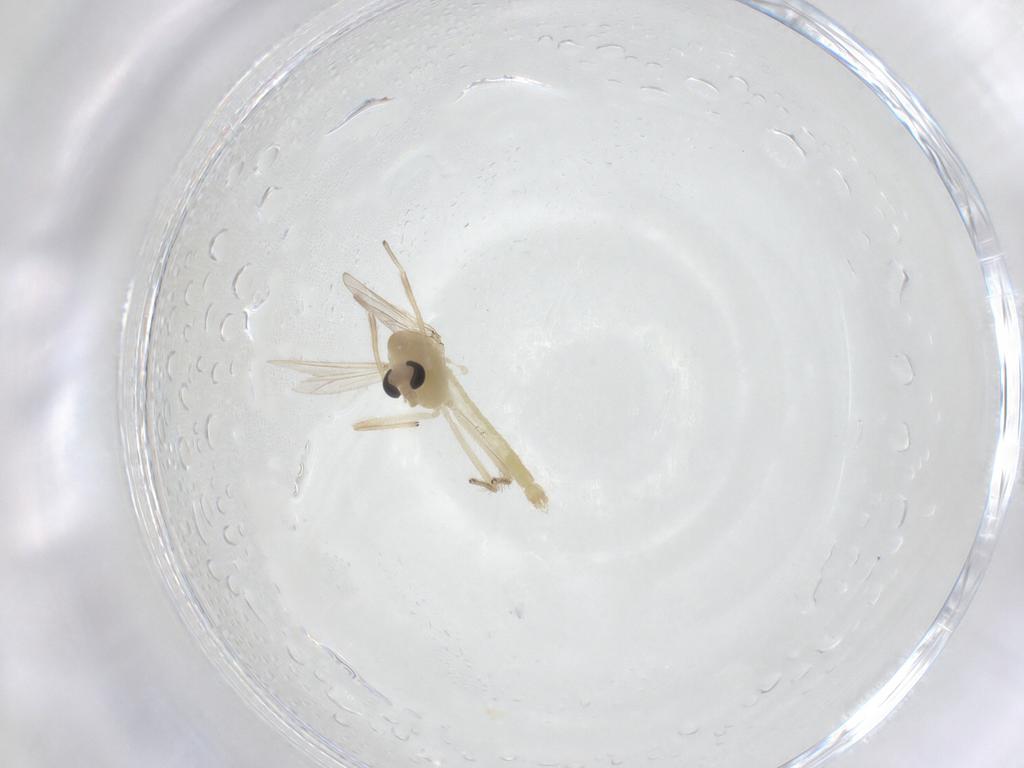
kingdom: Animalia
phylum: Arthropoda
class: Insecta
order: Diptera
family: Chironomidae
